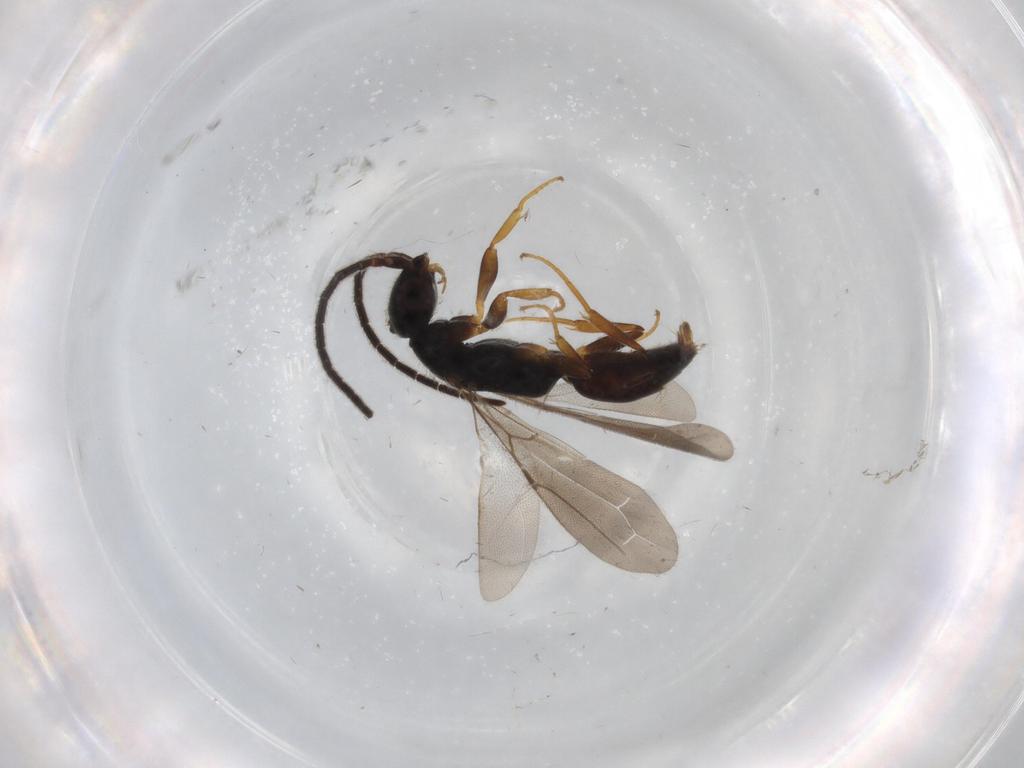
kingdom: Animalia
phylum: Arthropoda
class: Insecta
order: Hymenoptera
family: Bethylidae
